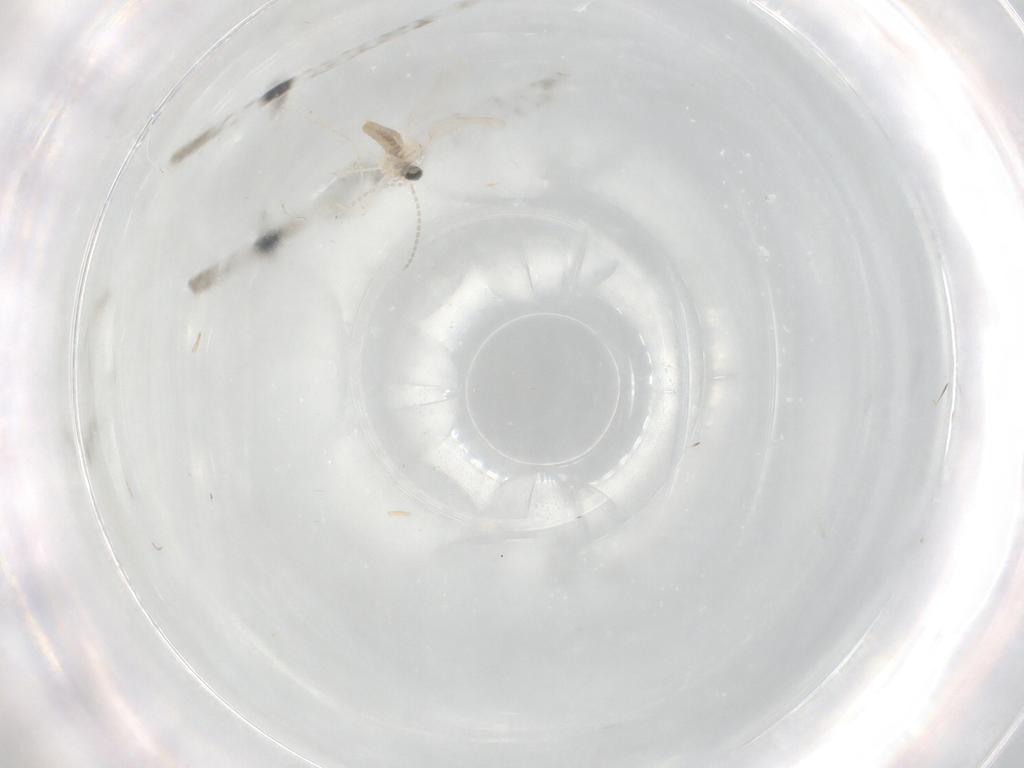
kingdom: Animalia
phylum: Arthropoda
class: Insecta
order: Diptera
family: Cecidomyiidae
